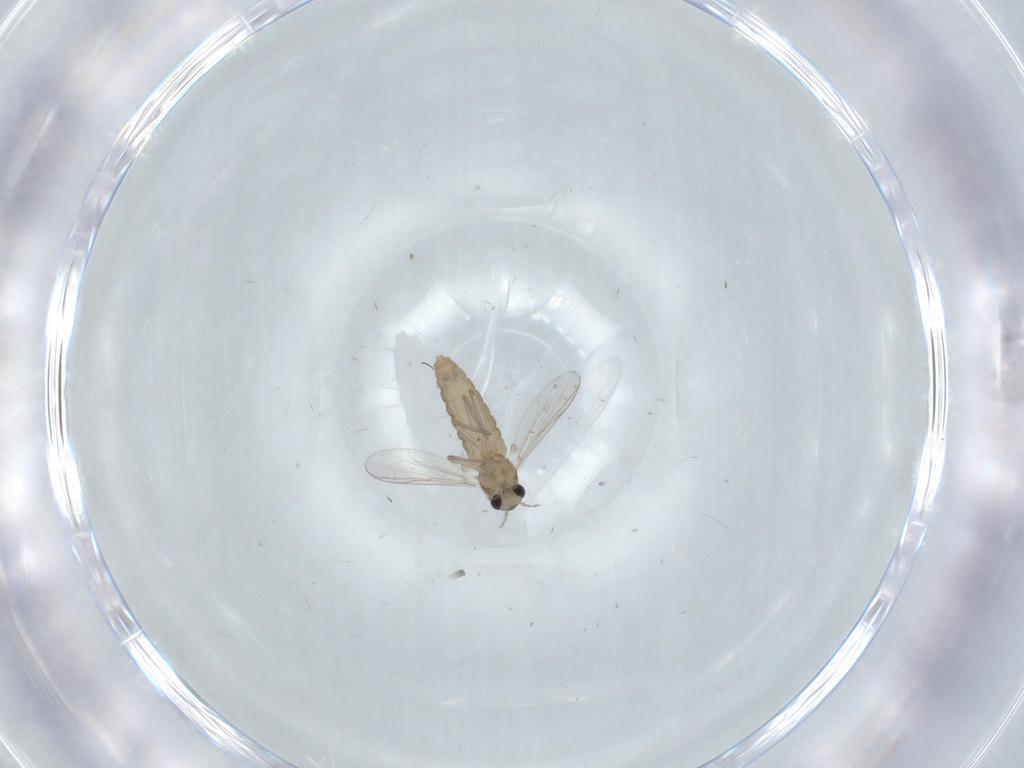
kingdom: Animalia
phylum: Arthropoda
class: Insecta
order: Diptera
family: Chironomidae
